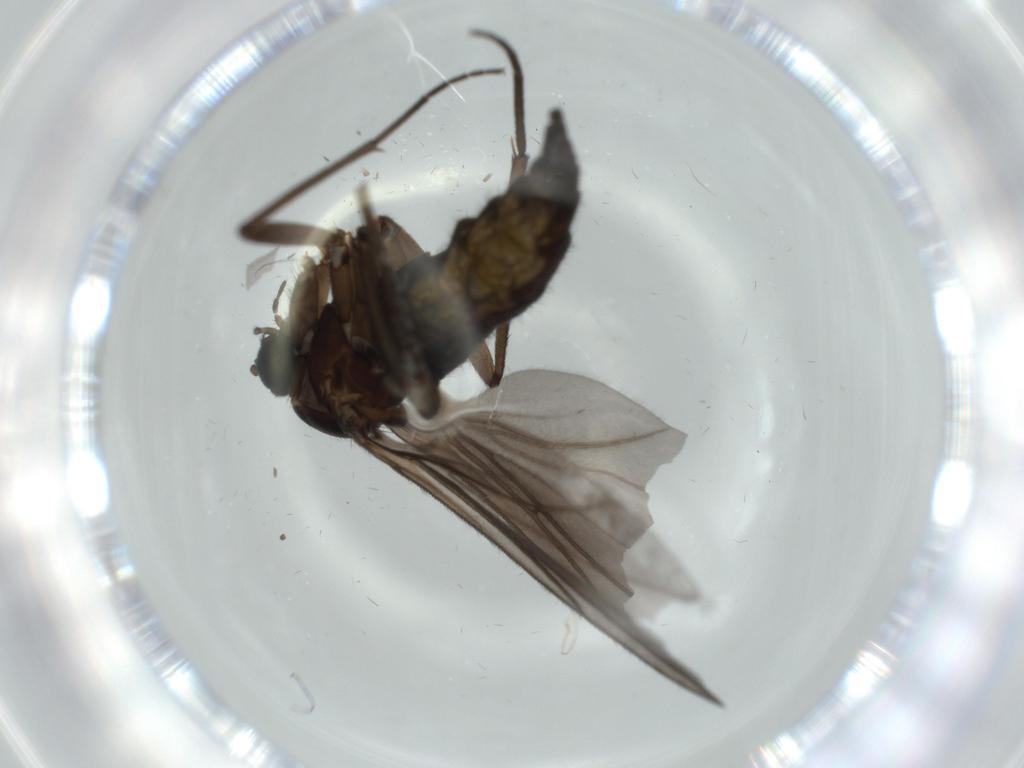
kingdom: Animalia
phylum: Arthropoda
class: Insecta
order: Diptera
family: Sciaridae
